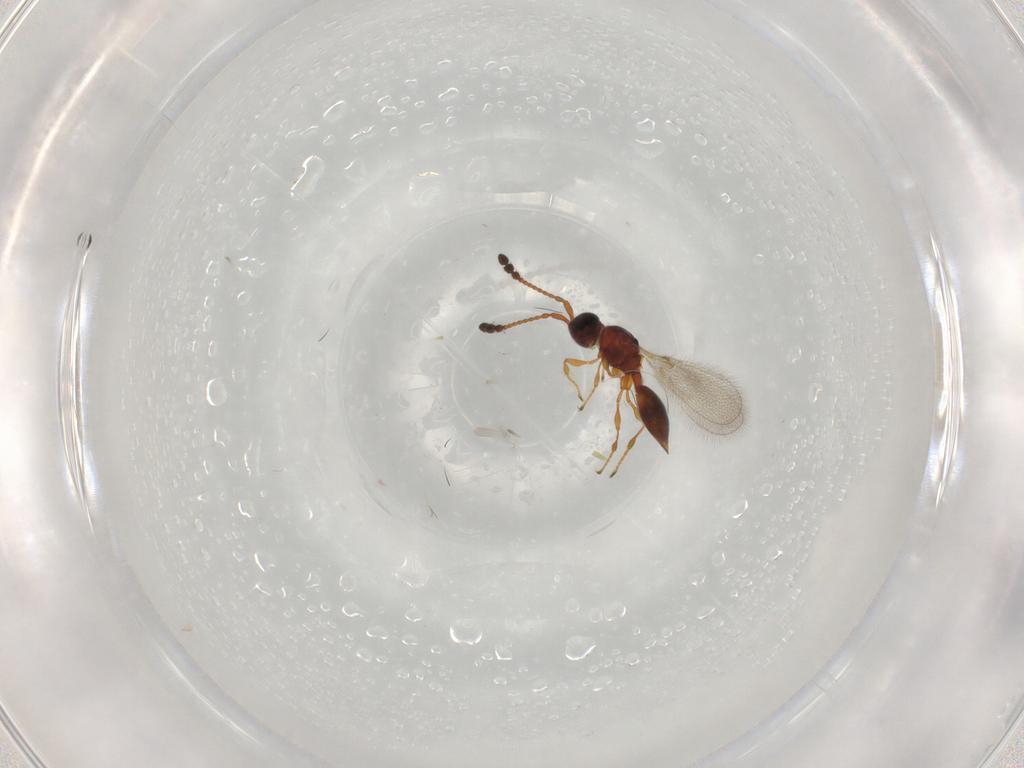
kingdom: Animalia
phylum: Arthropoda
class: Insecta
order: Hymenoptera
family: Diapriidae
